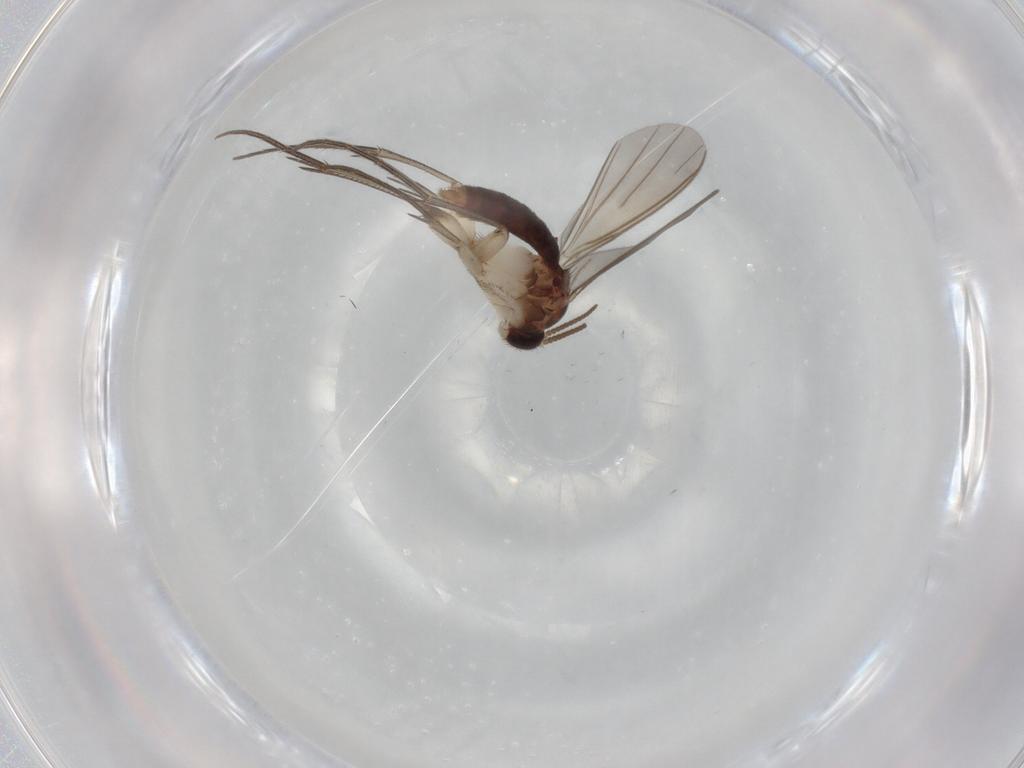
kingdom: Animalia
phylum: Arthropoda
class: Insecta
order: Diptera
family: Mycetophilidae
